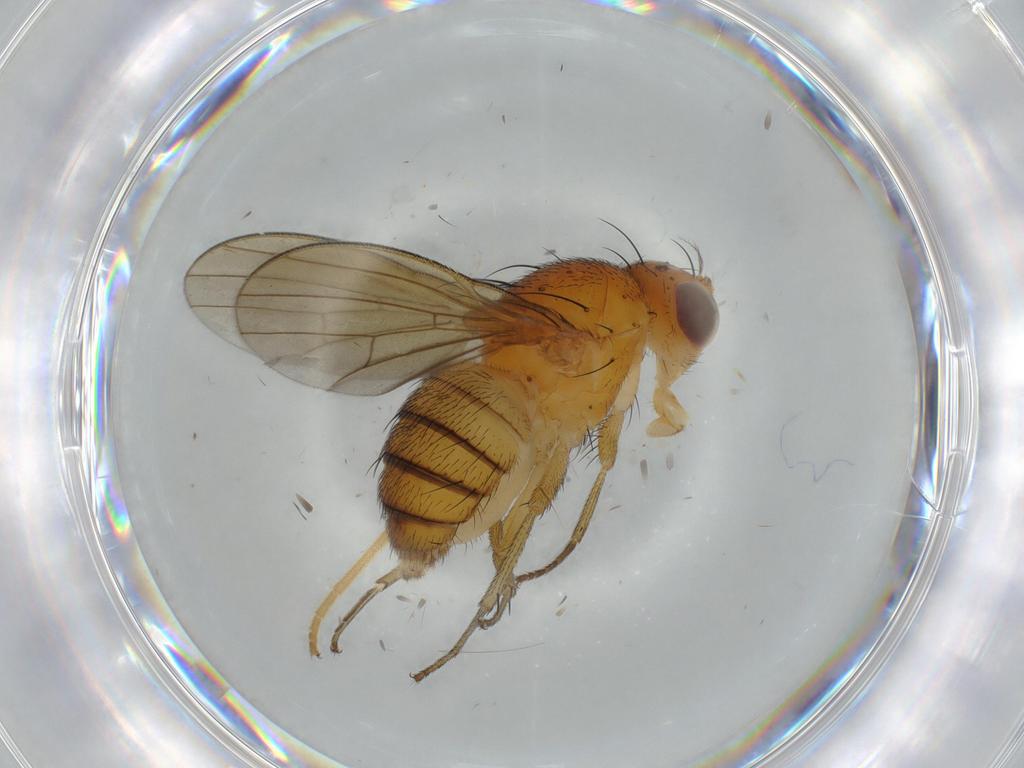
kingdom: Animalia
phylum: Arthropoda
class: Insecta
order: Diptera
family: Lauxaniidae
